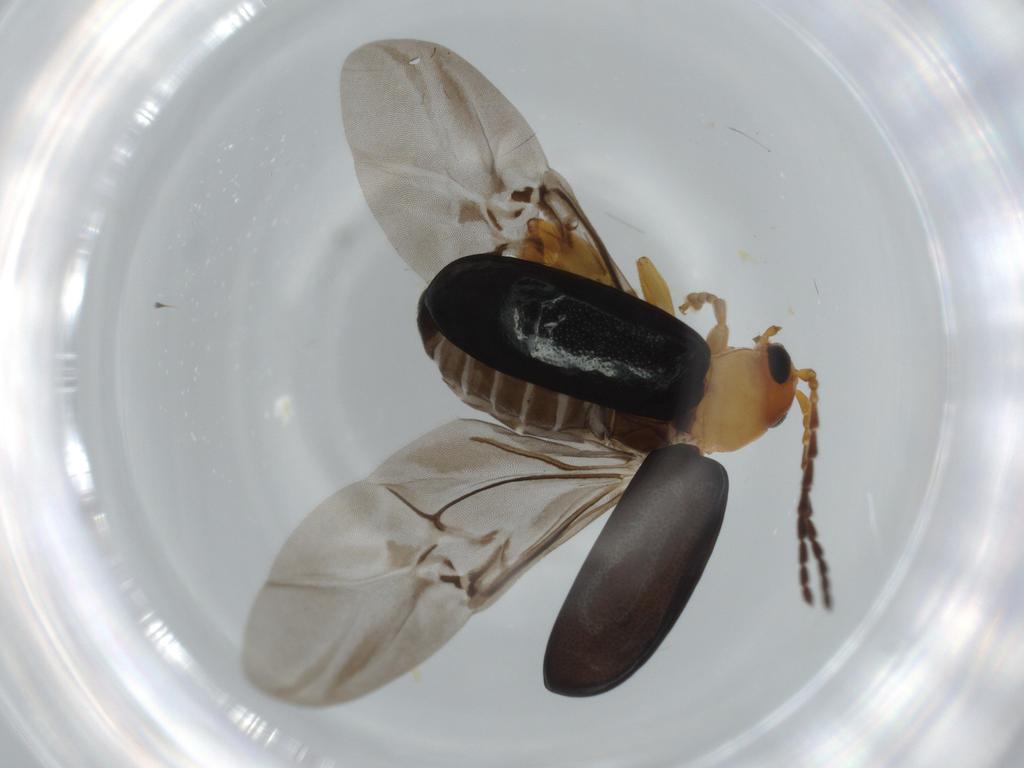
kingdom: Animalia
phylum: Arthropoda
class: Insecta
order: Coleoptera
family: Chrysomelidae
